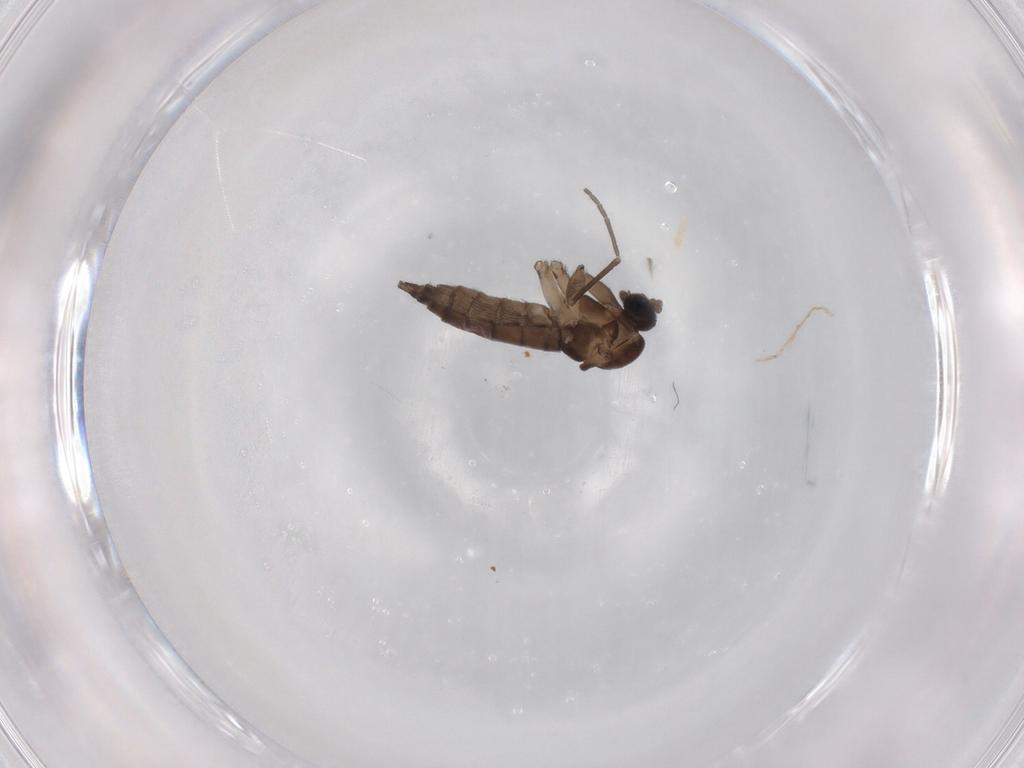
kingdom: Animalia
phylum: Arthropoda
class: Insecta
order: Diptera
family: Sciaridae
